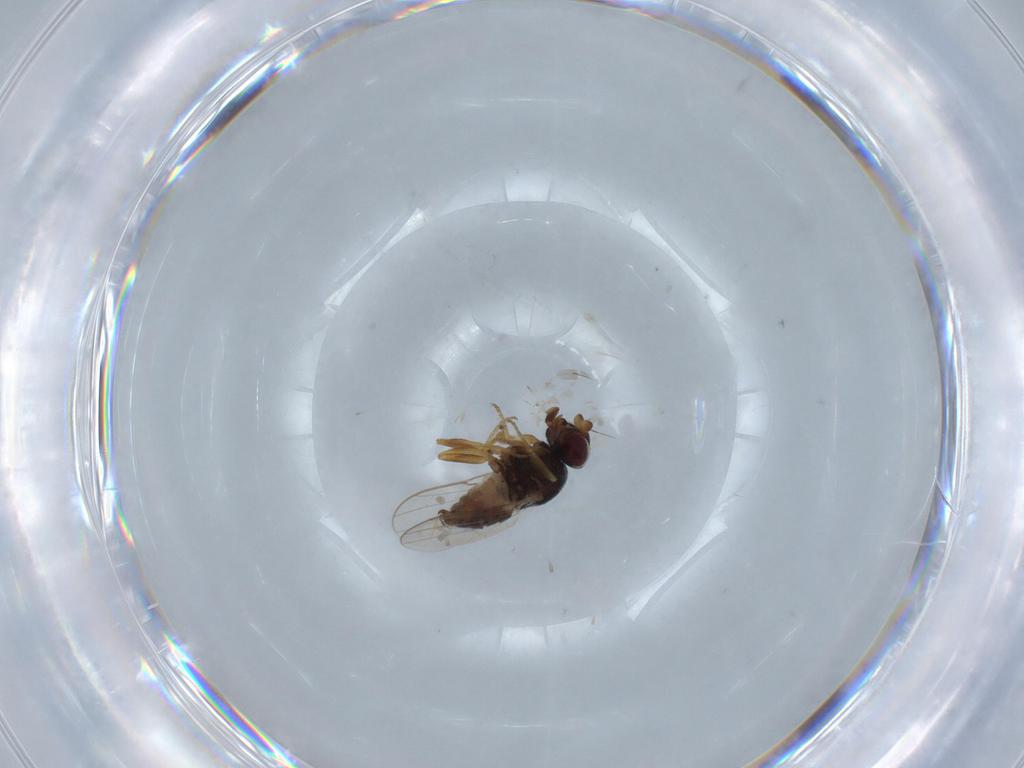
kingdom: Animalia
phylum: Arthropoda
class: Insecta
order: Diptera
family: Chloropidae
